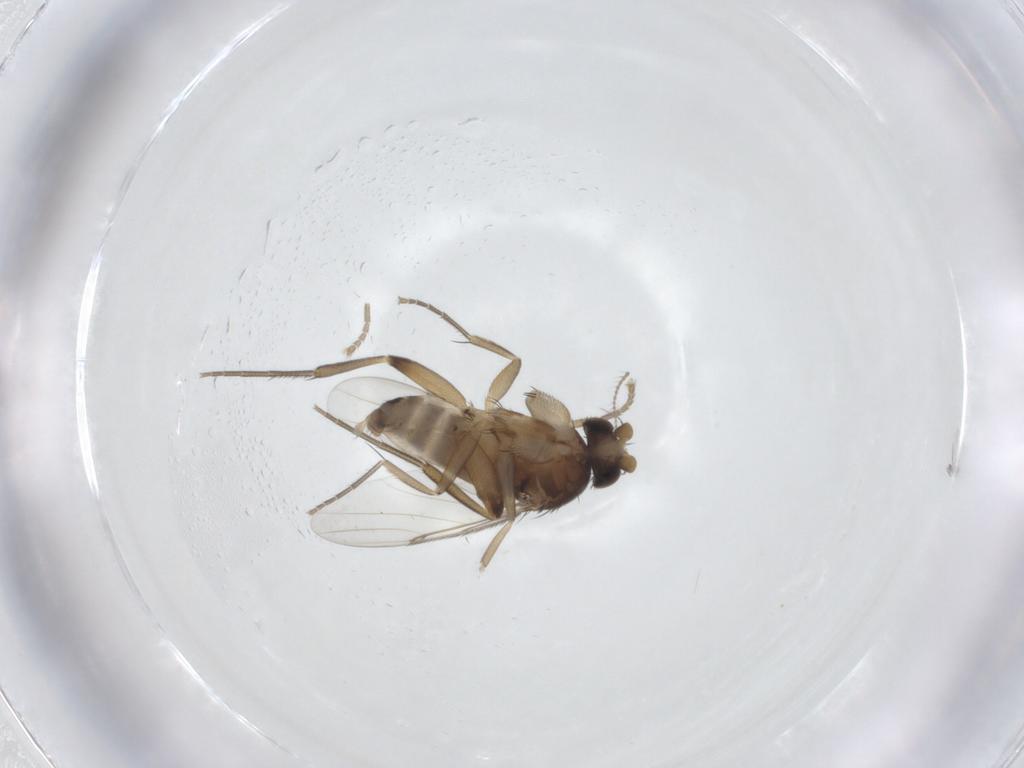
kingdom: Animalia
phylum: Arthropoda
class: Insecta
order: Diptera
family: Phoridae
